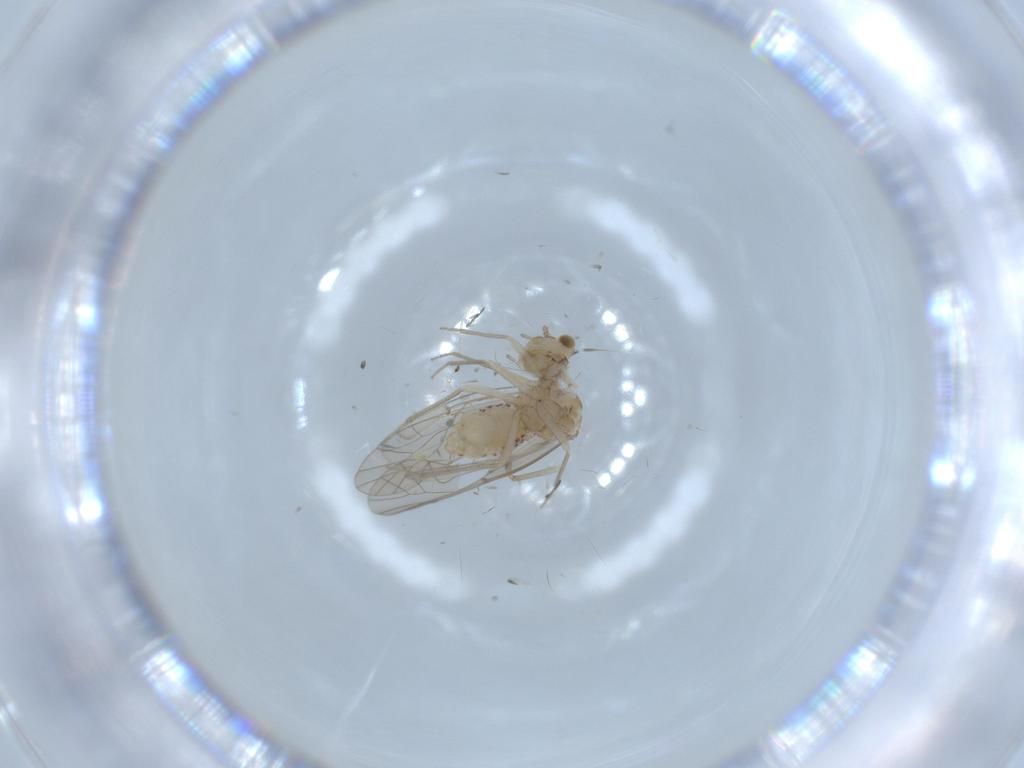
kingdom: Animalia
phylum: Arthropoda
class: Insecta
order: Psocodea
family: Lachesillidae
